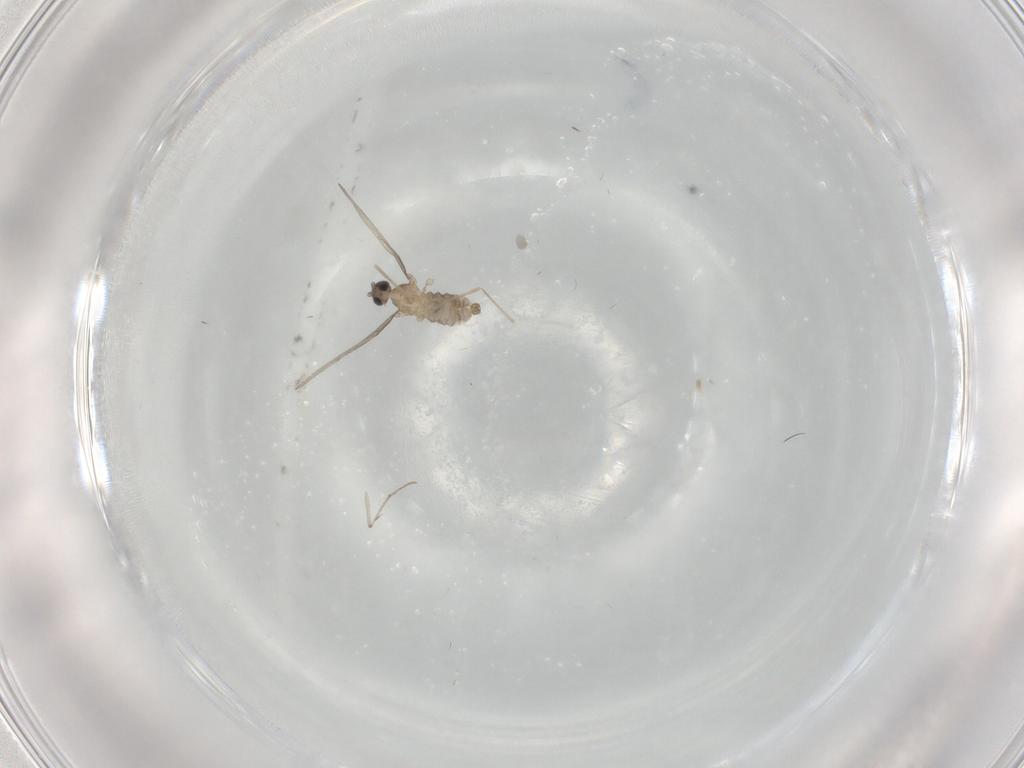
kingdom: Animalia
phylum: Arthropoda
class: Insecta
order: Diptera
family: Cecidomyiidae
